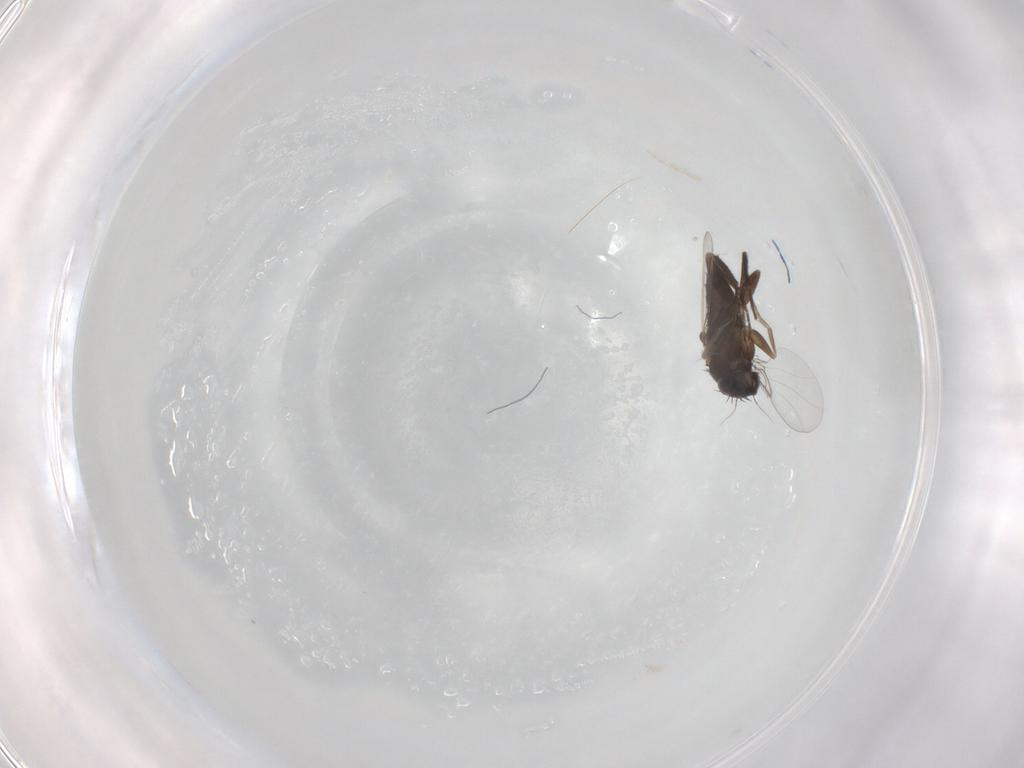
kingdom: Animalia
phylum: Arthropoda
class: Insecta
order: Diptera
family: Phoridae
